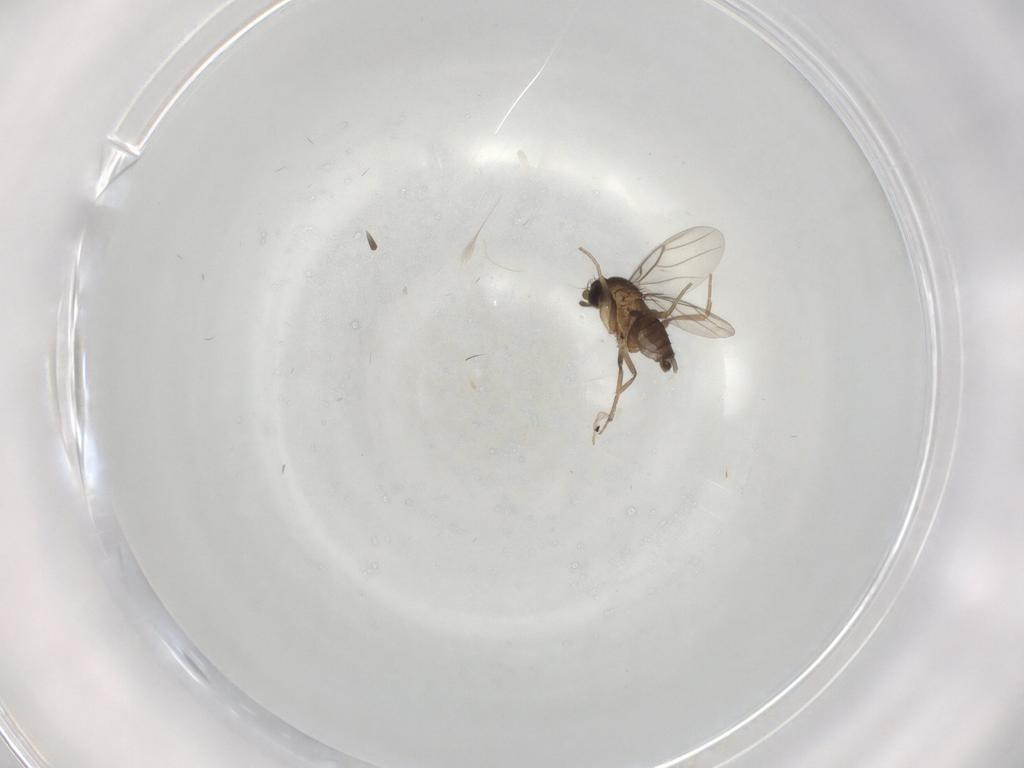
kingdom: Animalia
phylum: Arthropoda
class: Insecta
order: Diptera
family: Phoridae
